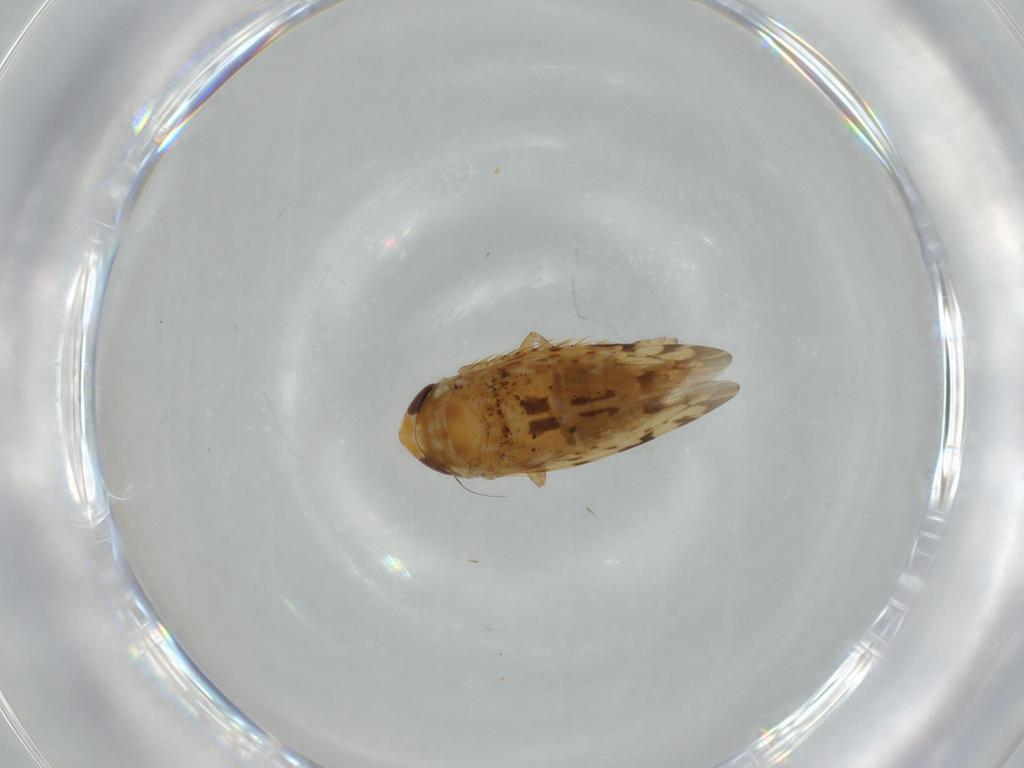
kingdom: Animalia
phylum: Arthropoda
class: Insecta
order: Hemiptera
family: Cicadellidae
